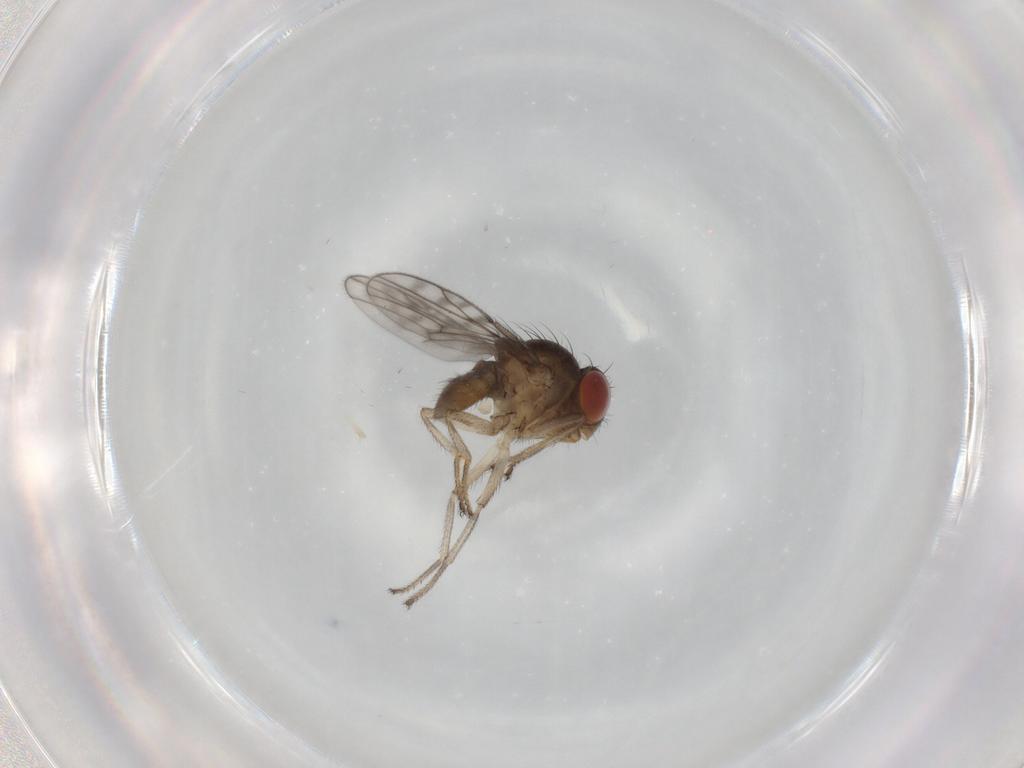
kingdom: Animalia
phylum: Arthropoda
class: Insecta
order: Diptera
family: Ephydridae
